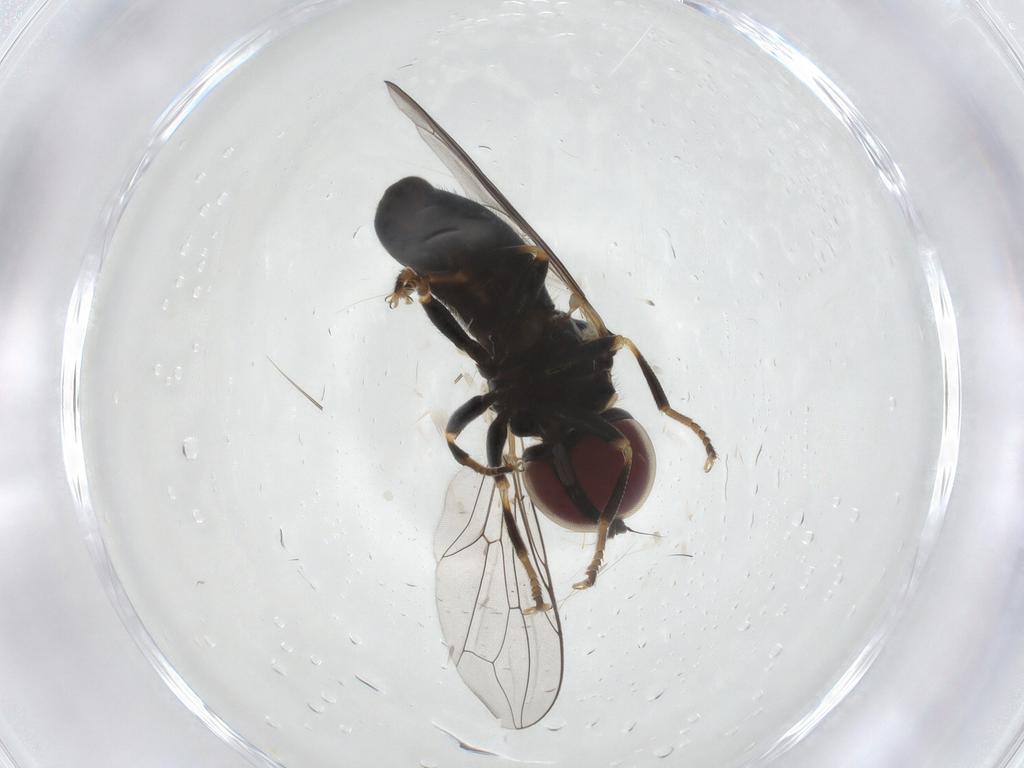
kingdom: Animalia
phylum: Arthropoda
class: Insecta
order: Diptera
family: Pipunculidae
